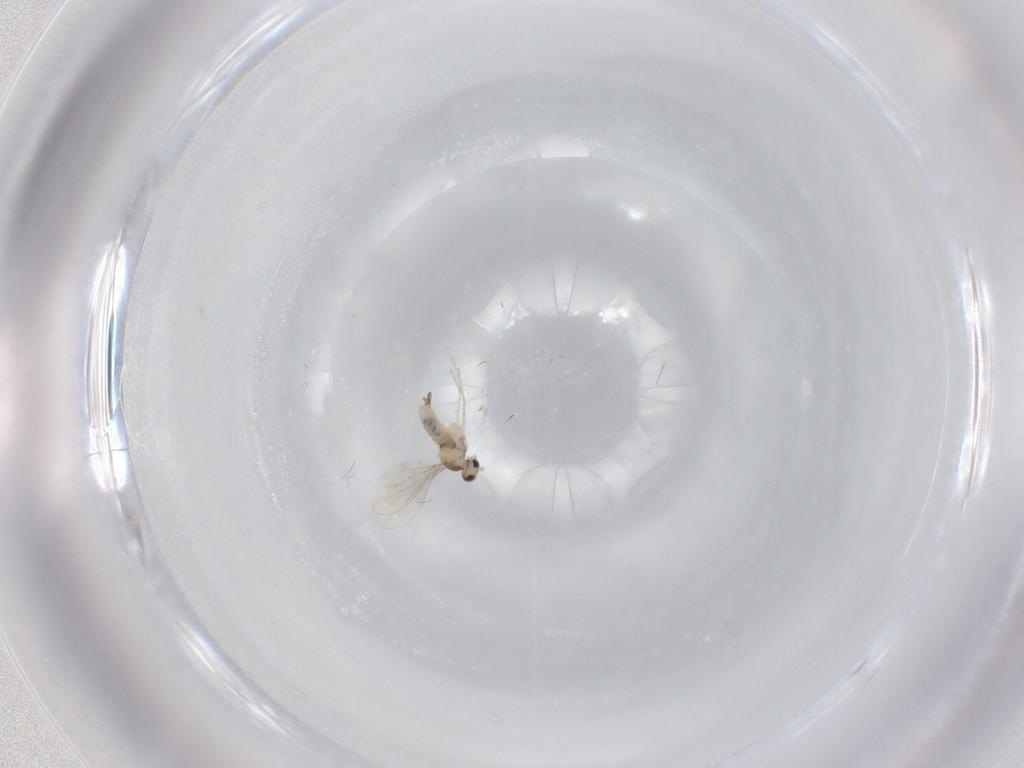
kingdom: Animalia
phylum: Arthropoda
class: Insecta
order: Diptera
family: Cecidomyiidae
